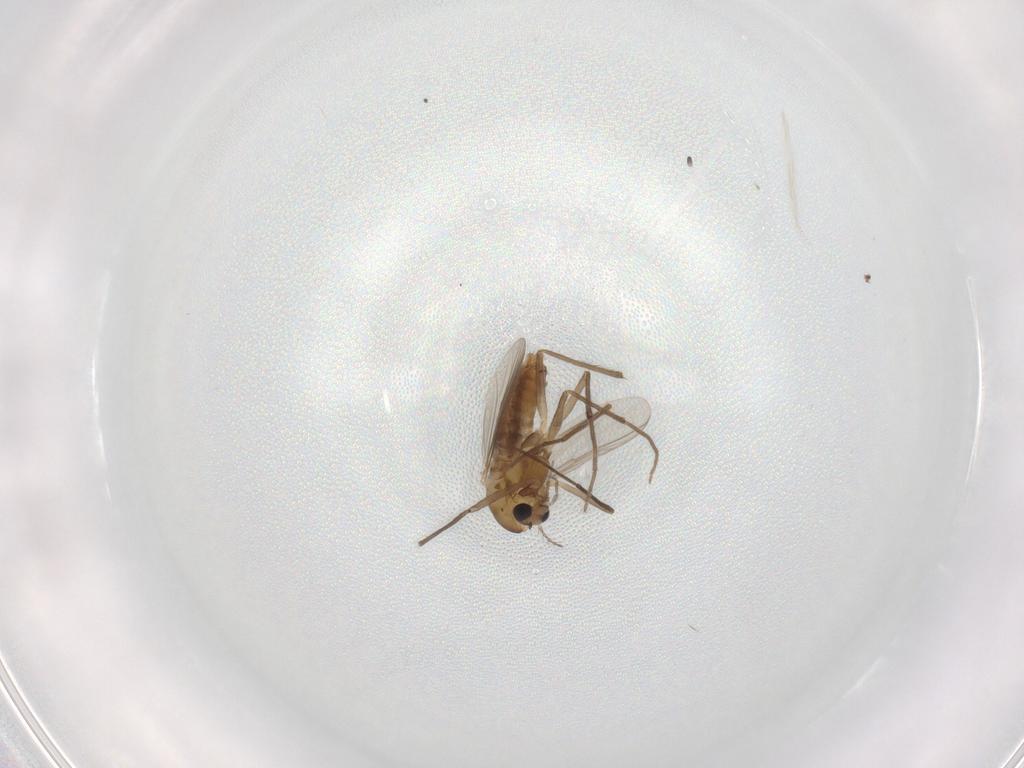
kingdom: Animalia
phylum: Arthropoda
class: Insecta
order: Diptera
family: Chironomidae
